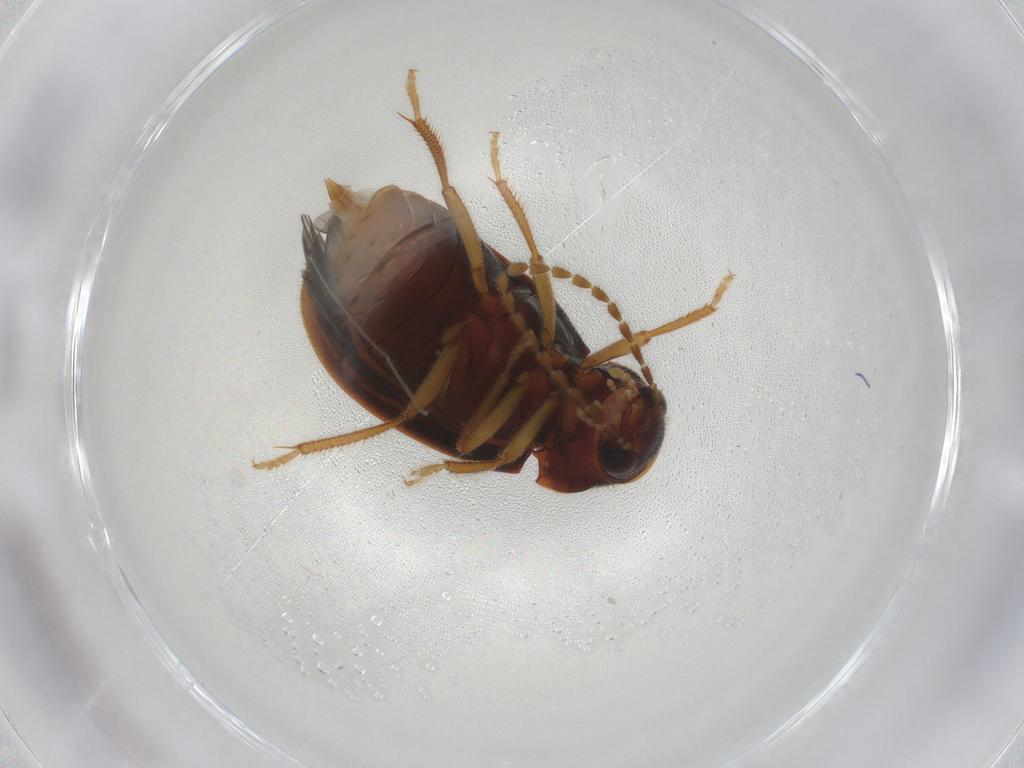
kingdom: Animalia
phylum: Arthropoda
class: Insecta
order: Coleoptera
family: Ptilodactylidae
